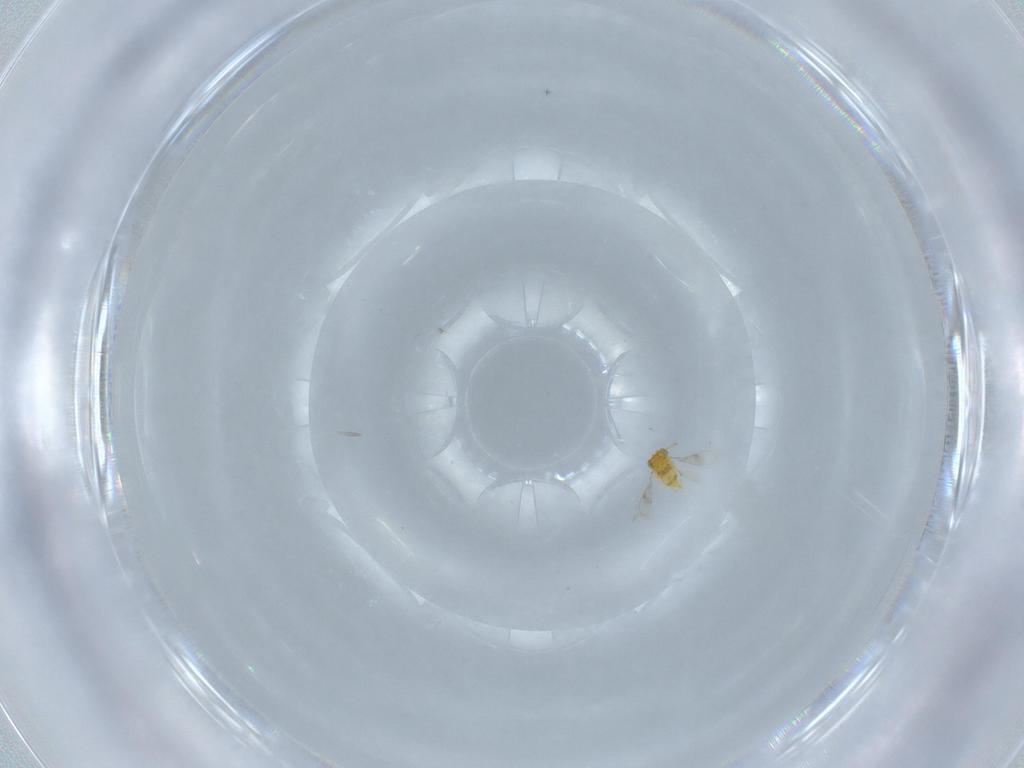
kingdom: Animalia
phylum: Arthropoda
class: Insecta
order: Hymenoptera
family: Aphelinidae
